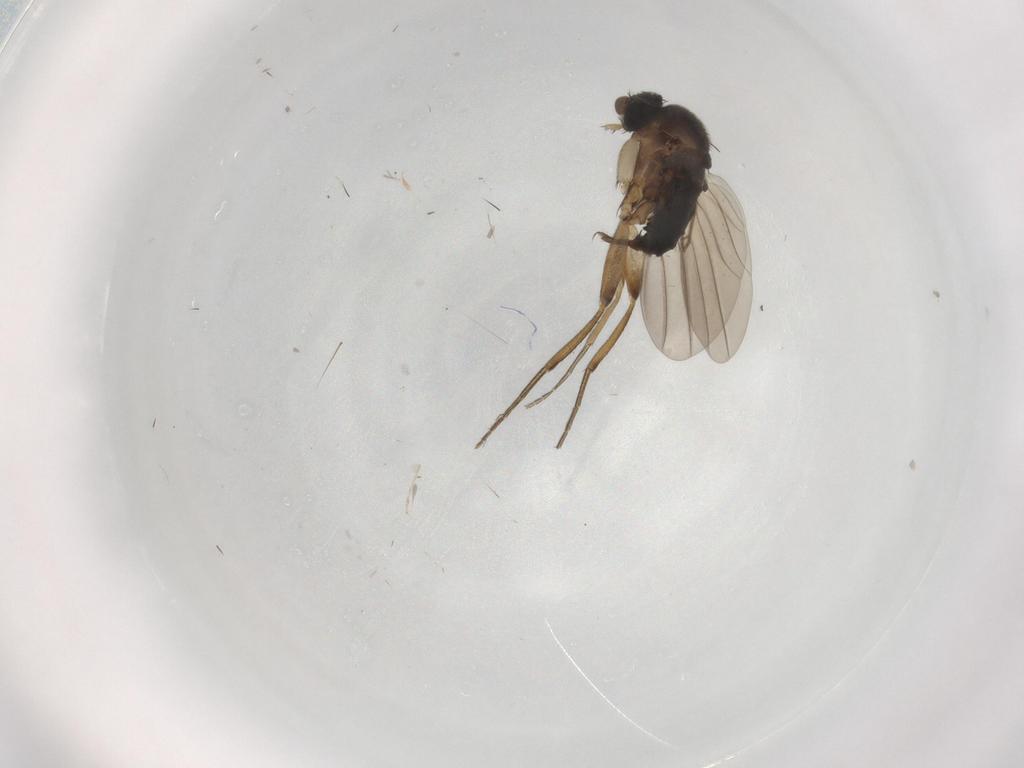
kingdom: Animalia
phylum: Arthropoda
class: Insecta
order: Diptera
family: Phoridae
